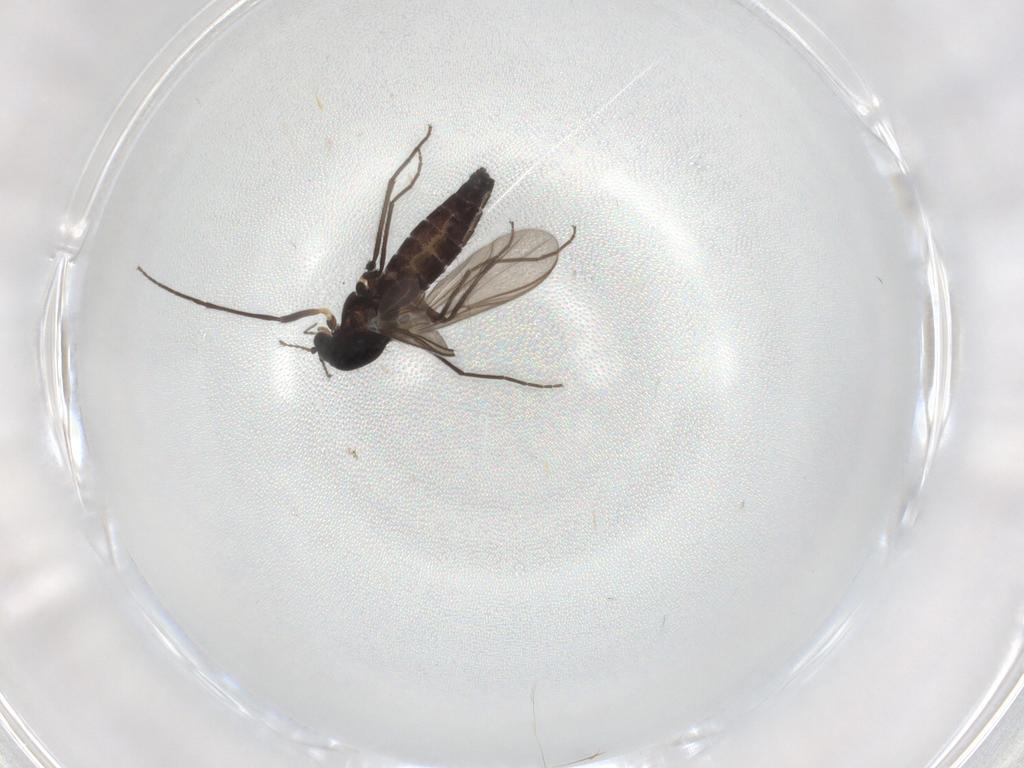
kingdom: Animalia
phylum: Arthropoda
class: Insecta
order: Diptera
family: Chironomidae
